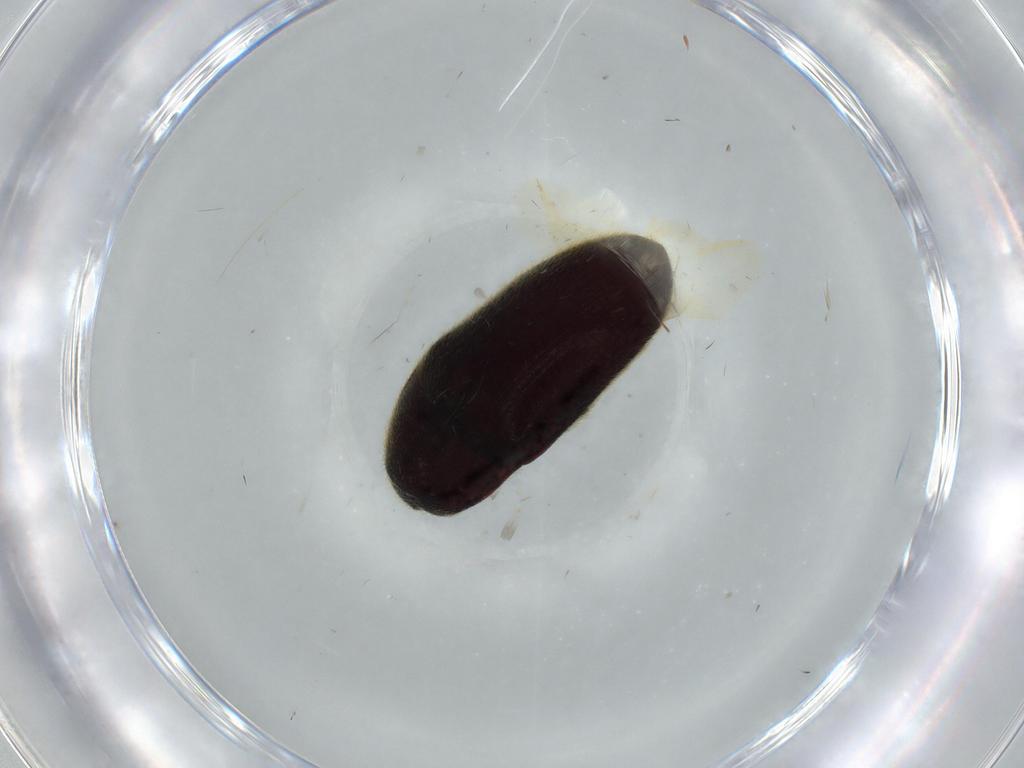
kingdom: Animalia
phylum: Arthropoda
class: Insecta
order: Coleoptera
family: Throscidae
